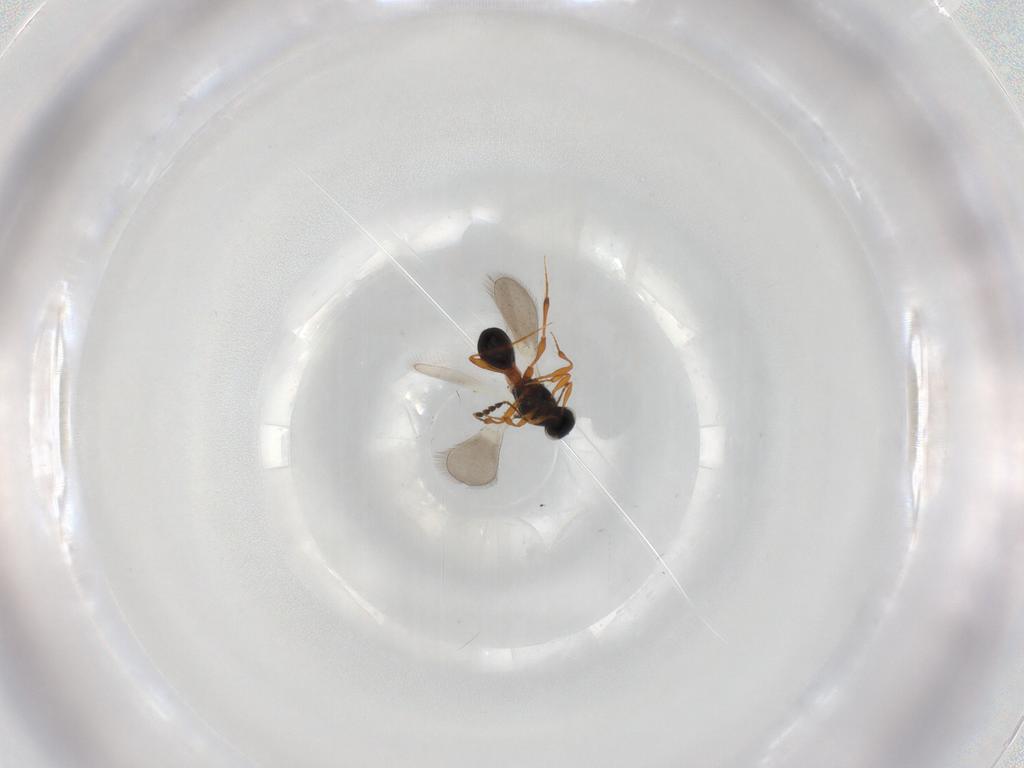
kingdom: Animalia
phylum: Arthropoda
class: Insecta
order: Hymenoptera
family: Platygastridae
